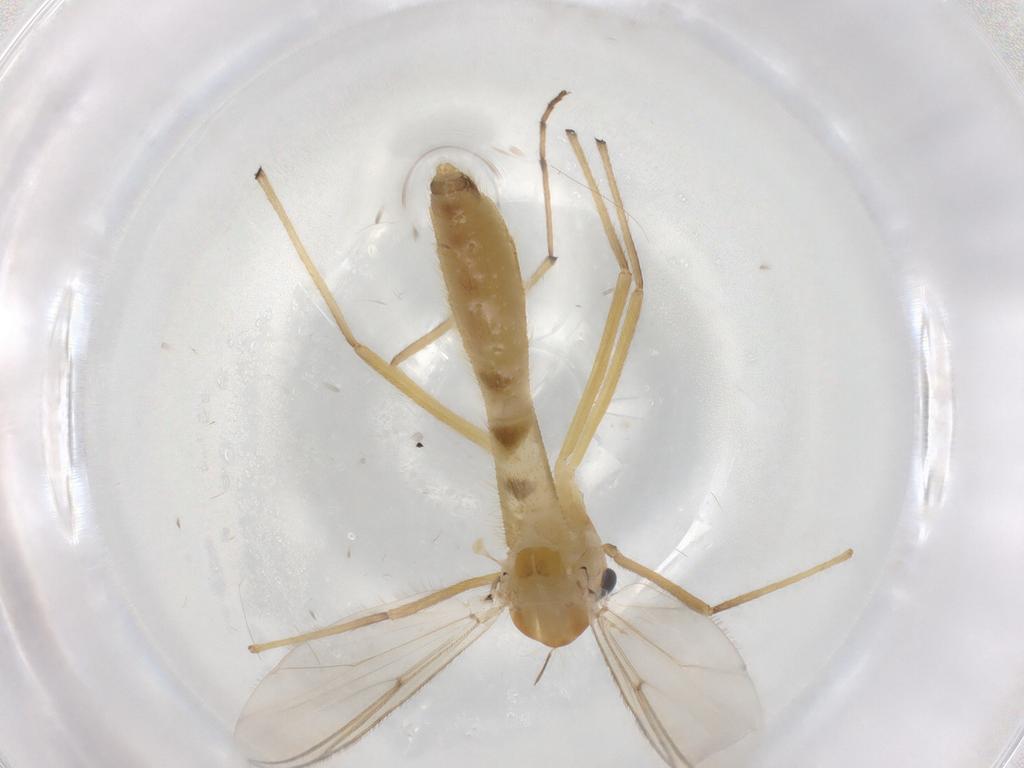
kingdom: Animalia
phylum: Arthropoda
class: Insecta
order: Diptera
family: Chironomidae
